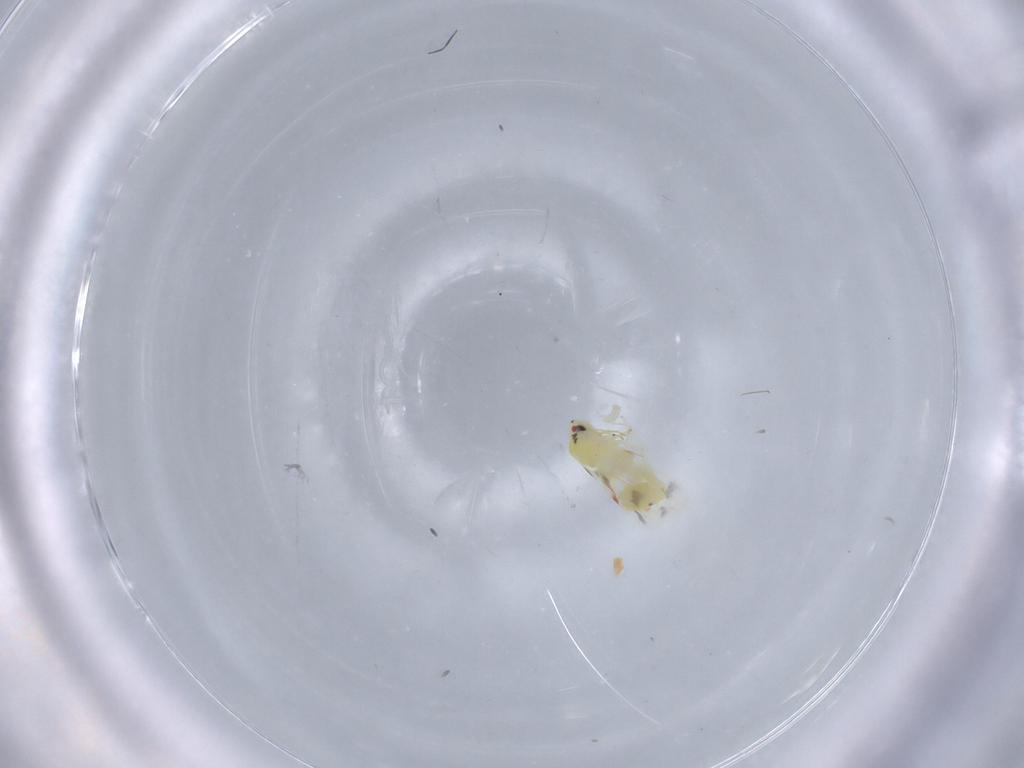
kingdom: Animalia
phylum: Arthropoda
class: Insecta
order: Hemiptera
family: Aleyrodidae
